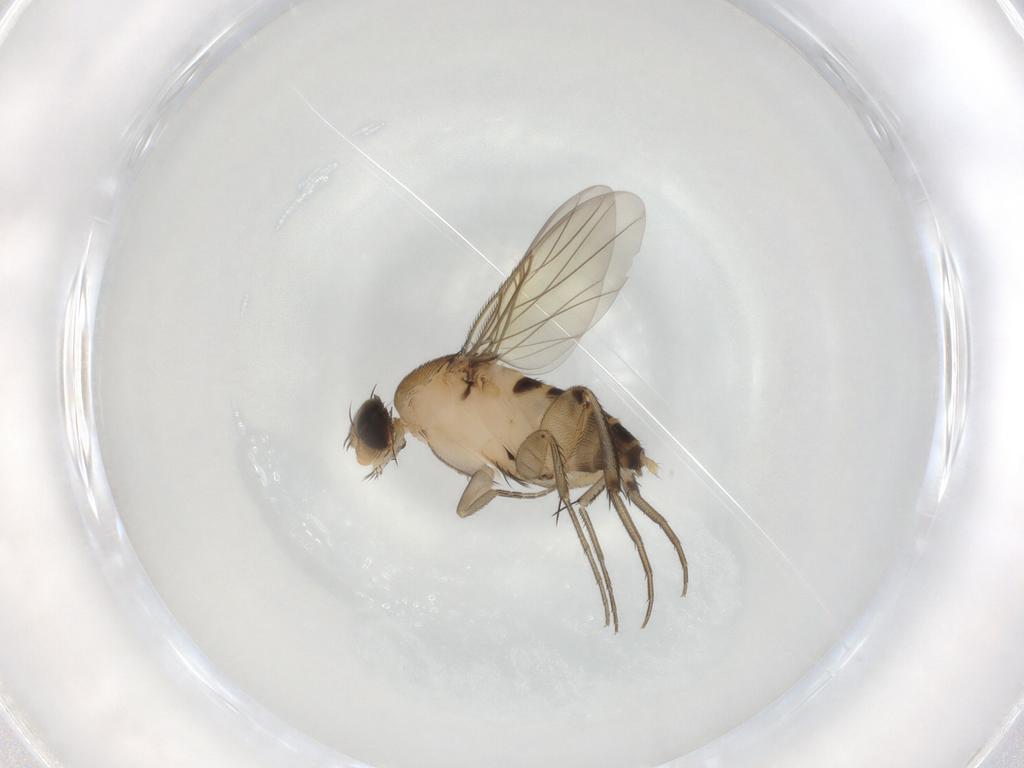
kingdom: Animalia
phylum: Arthropoda
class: Insecta
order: Diptera
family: Phoridae
